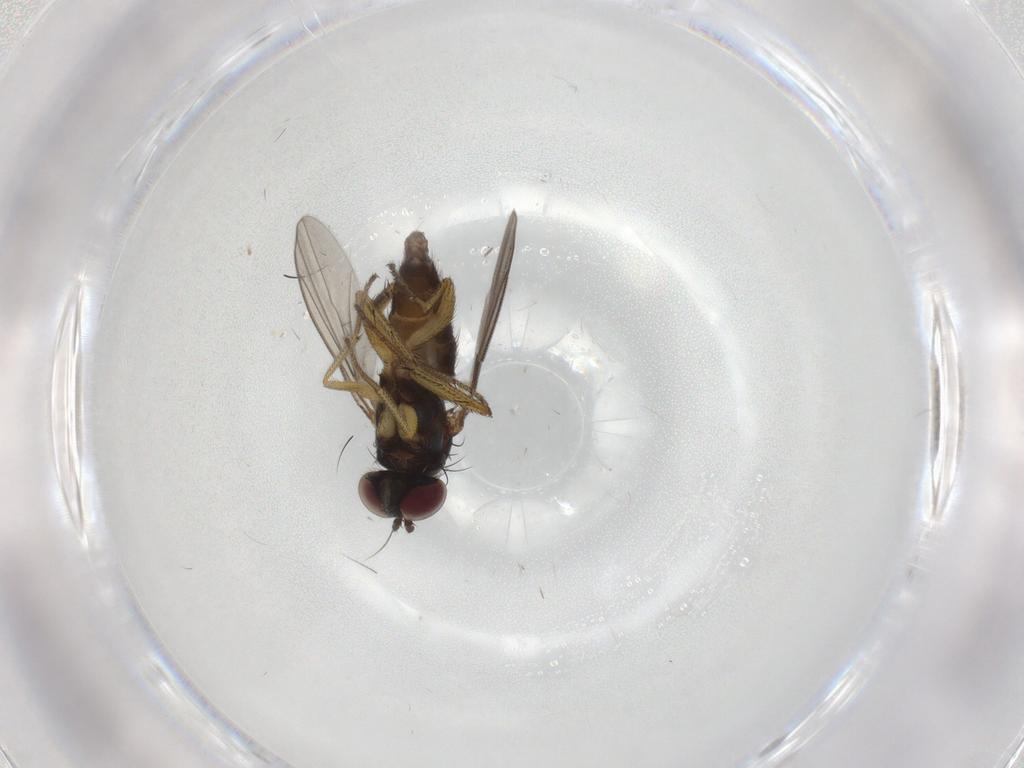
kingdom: Animalia
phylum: Arthropoda
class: Insecta
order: Diptera
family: Dolichopodidae
